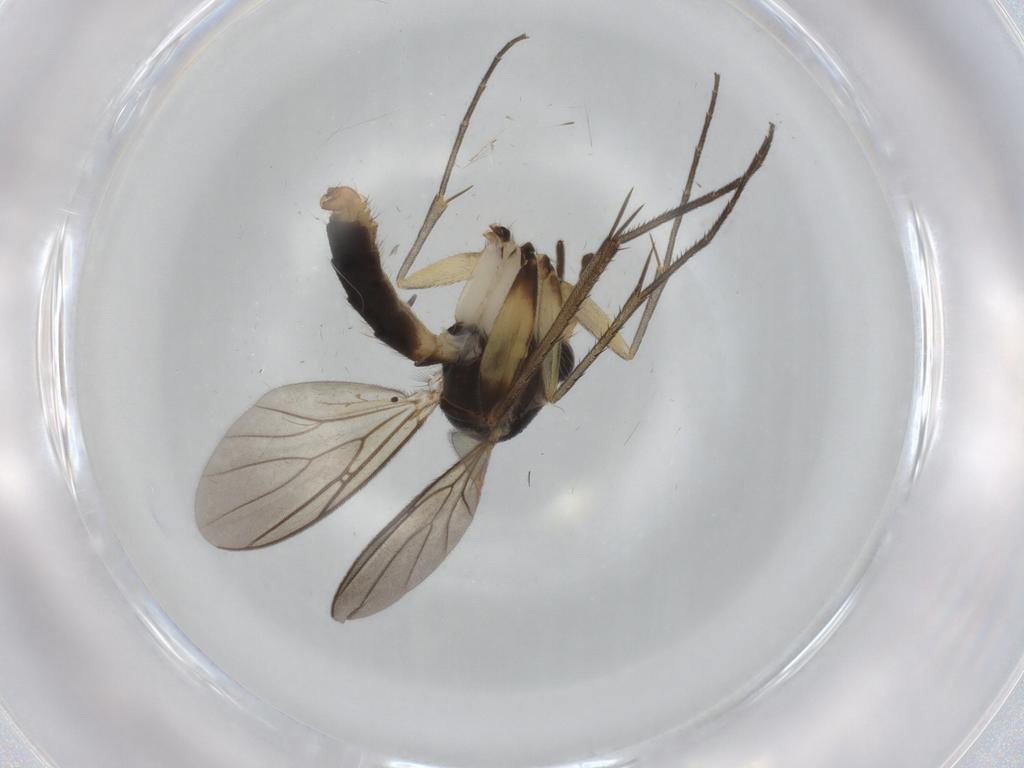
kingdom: Animalia
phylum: Arthropoda
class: Insecta
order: Diptera
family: Cecidomyiidae
